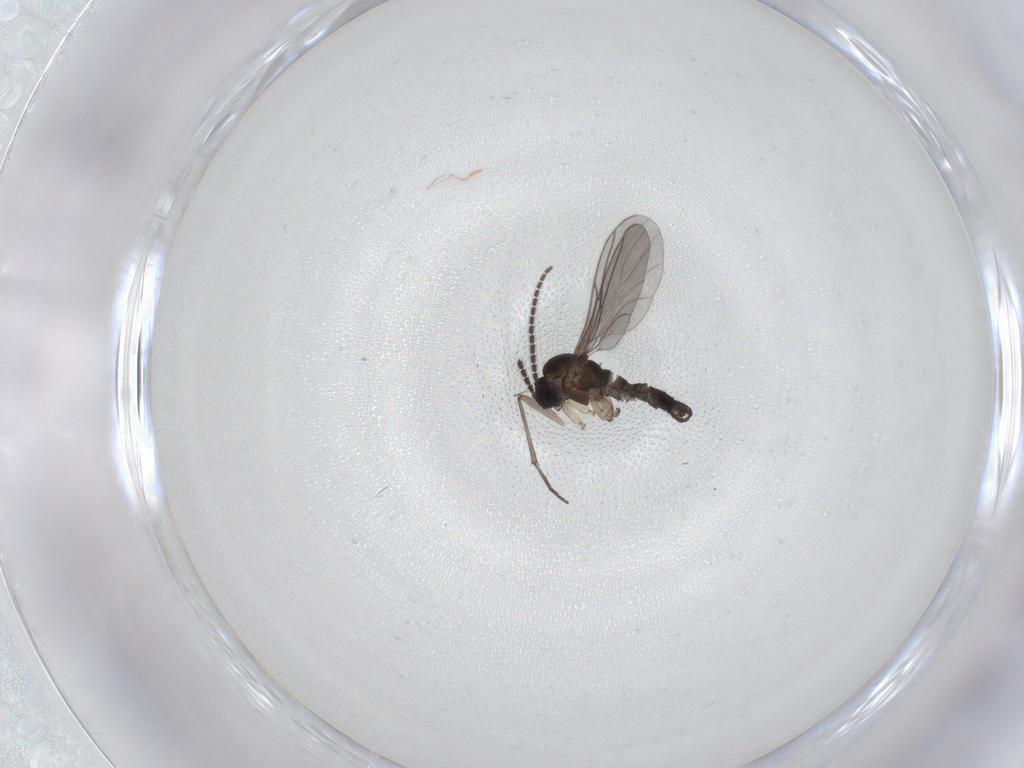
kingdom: Animalia
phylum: Arthropoda
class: Insecta
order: Diptera
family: Sciaridae
